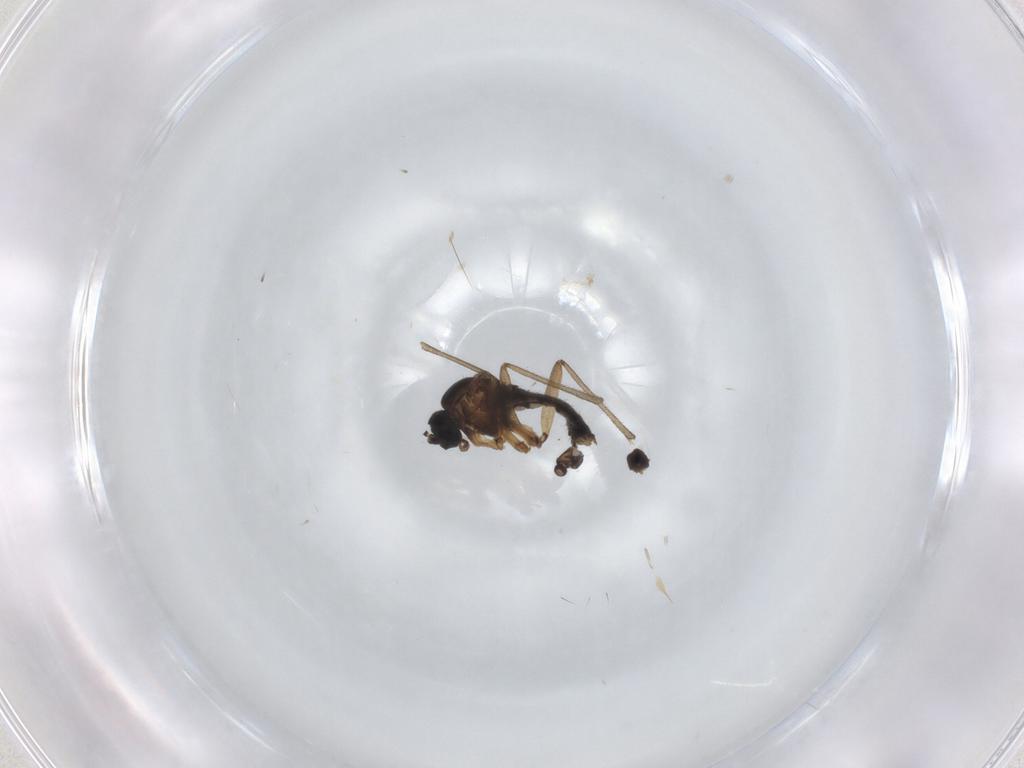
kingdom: Animalia
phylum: Arthropoda
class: Insecta
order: Diptera
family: Sciaridae
